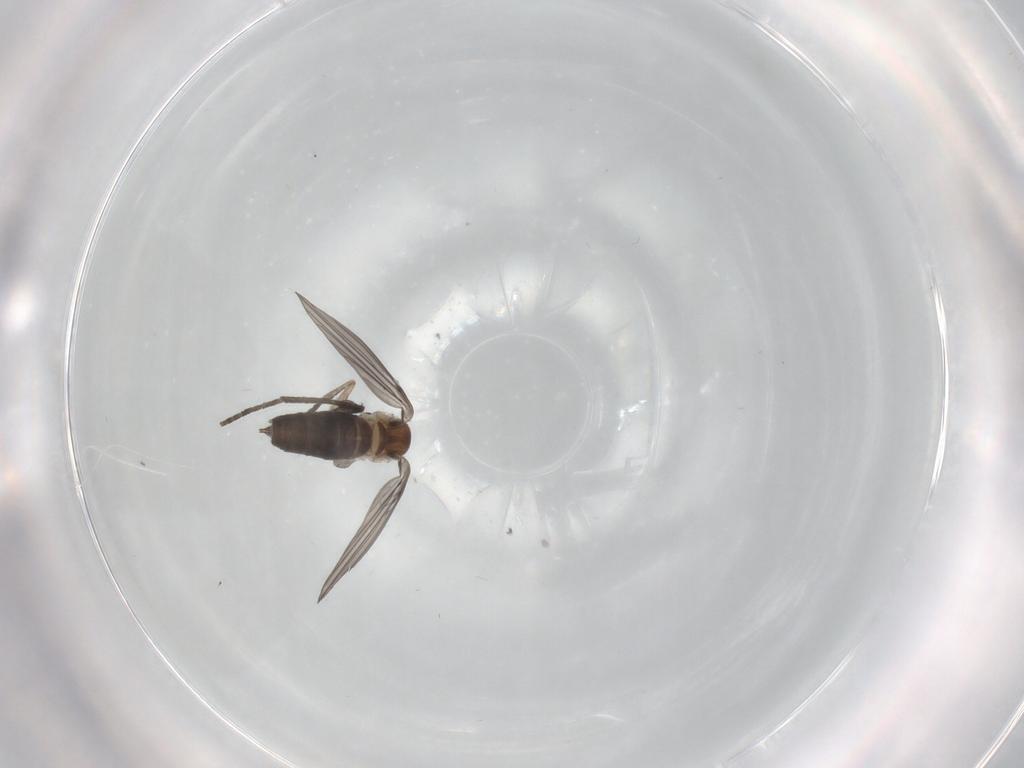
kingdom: Animalia
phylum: Arthropoda
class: Insecta
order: Diptera
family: Psychodidae
